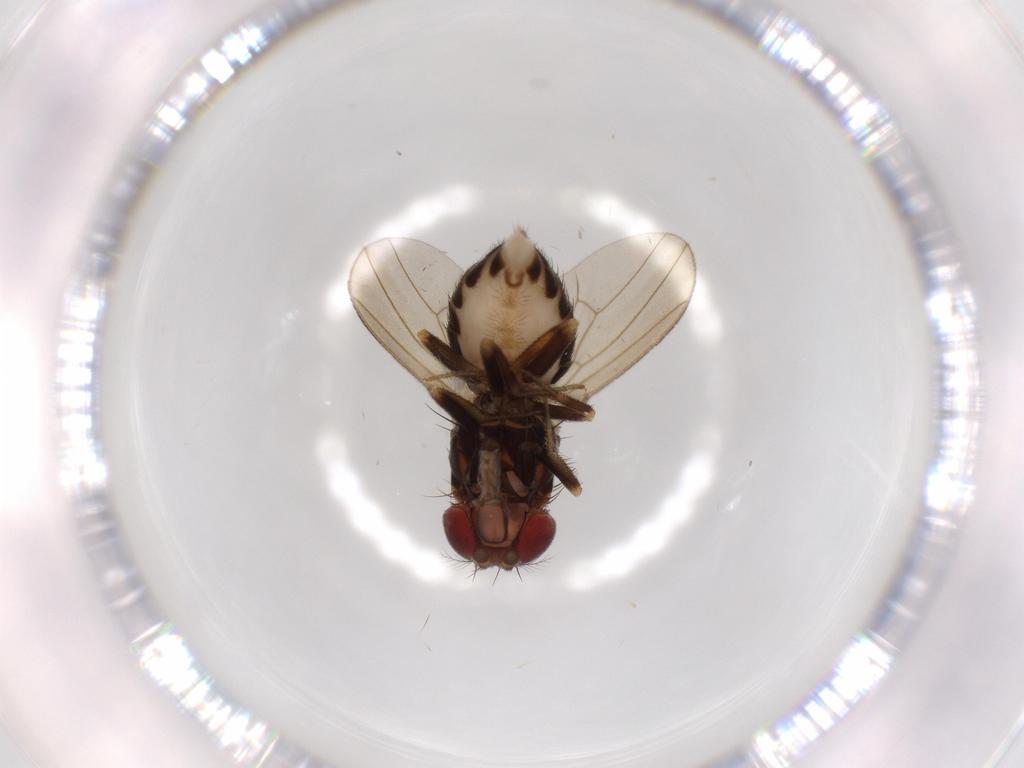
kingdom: Animalia
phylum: Arthropoda
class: Insecta
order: Diptera
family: Drosophilidae
